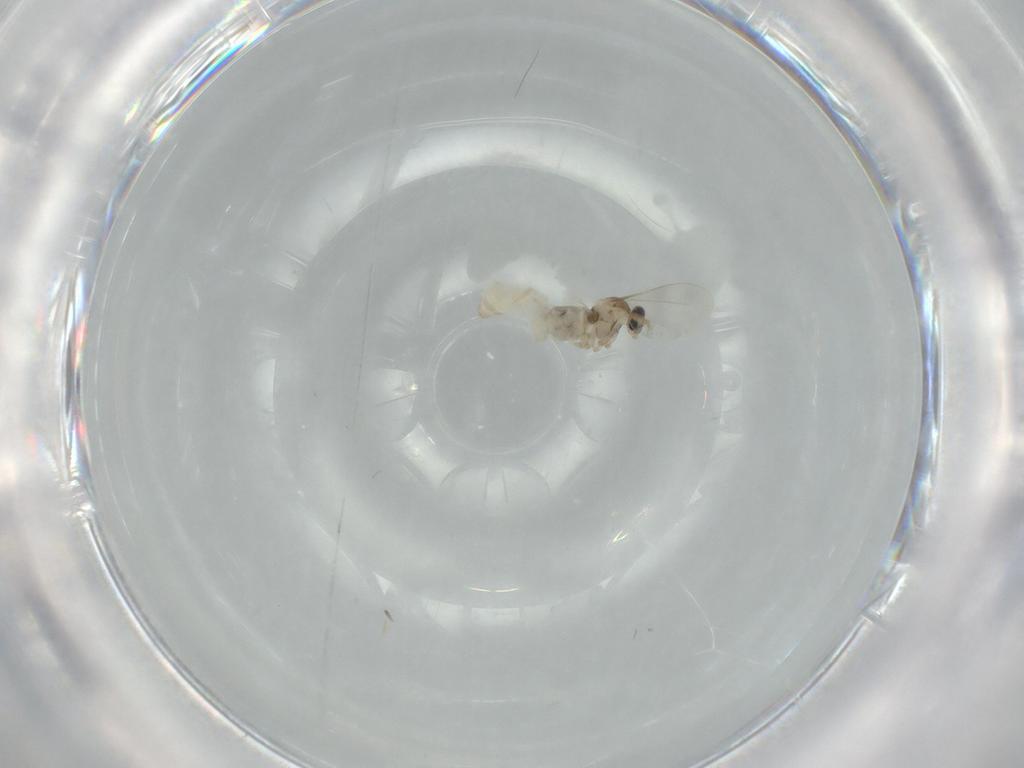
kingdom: Animalia
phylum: Arthropoda
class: Insecta
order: Diptera
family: Cecidomyiidae
